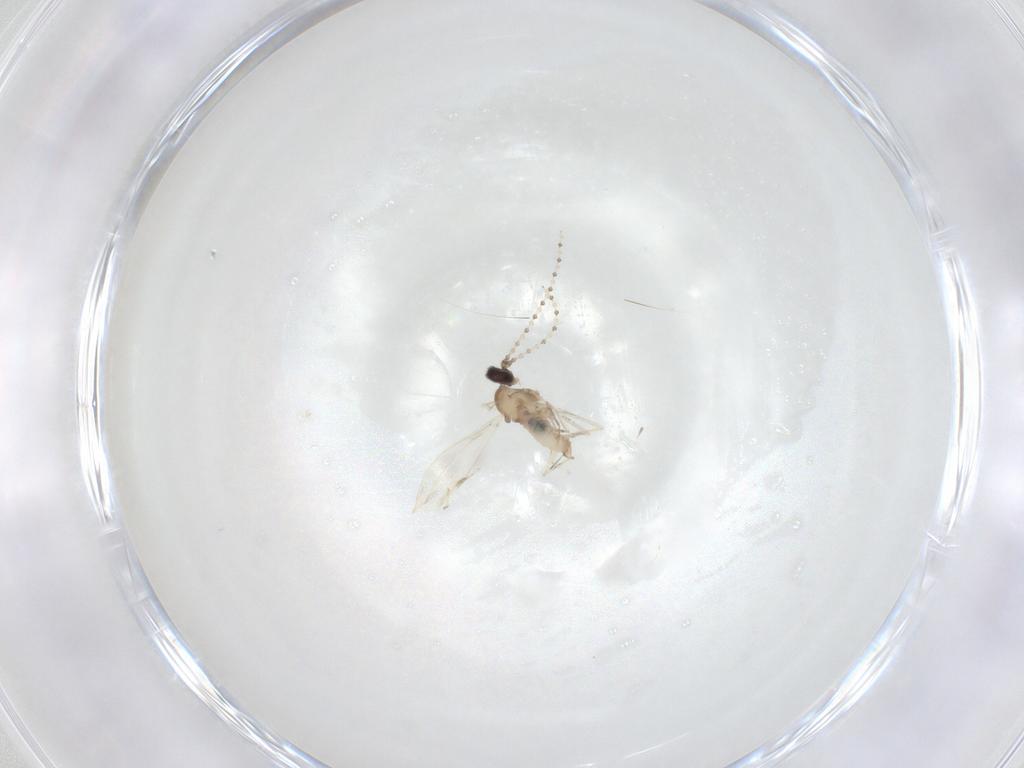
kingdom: Animalia
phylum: Arthropoda
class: Insecta
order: Diptera
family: Cecidomyiidae
